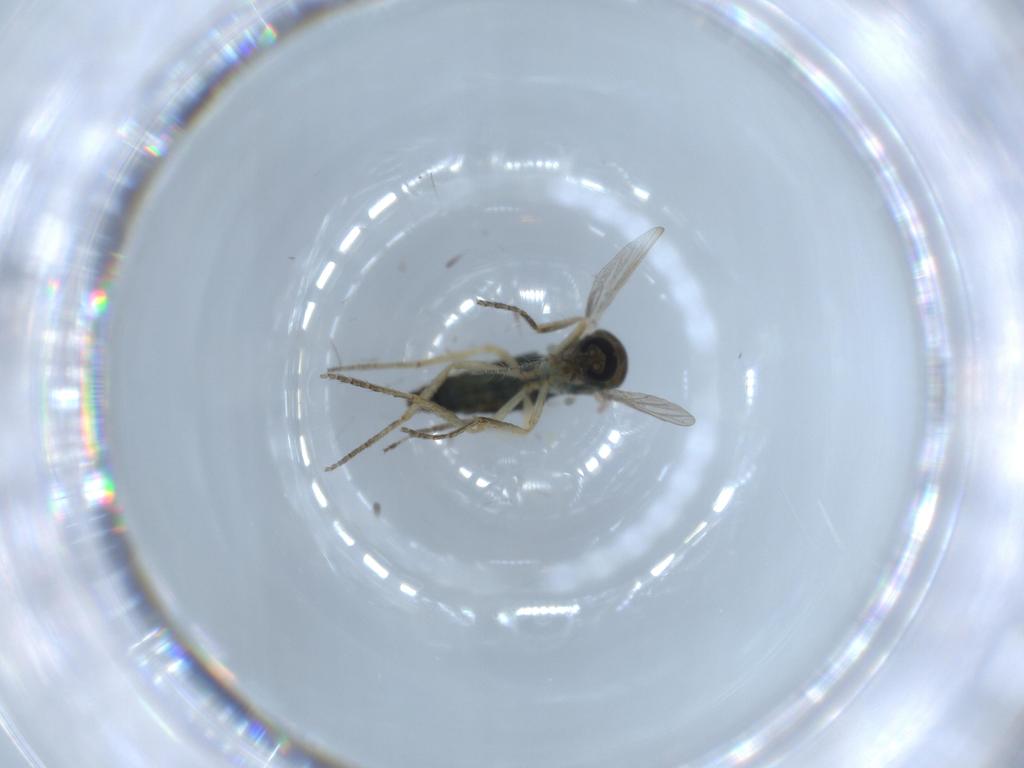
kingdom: Animalia
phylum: Arthropoda
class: Insecta
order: Diptera
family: Ceratopogonidae
